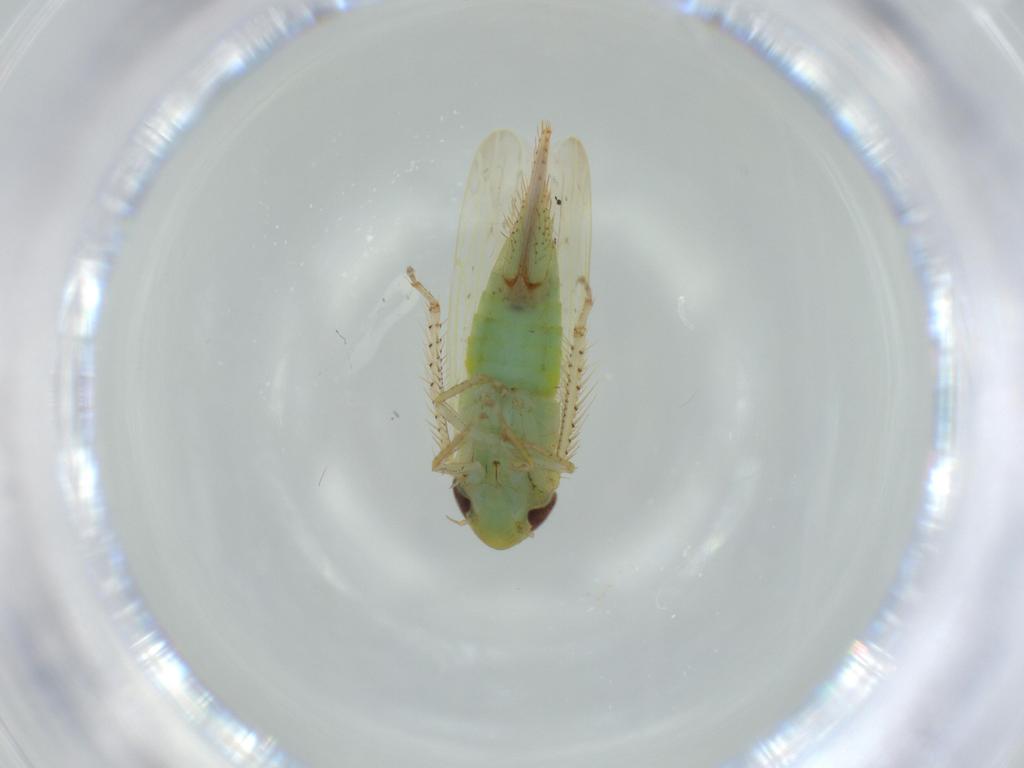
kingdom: Animalia
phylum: Arthropoda
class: Insecta
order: Hemiptera
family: Cicadellidae
